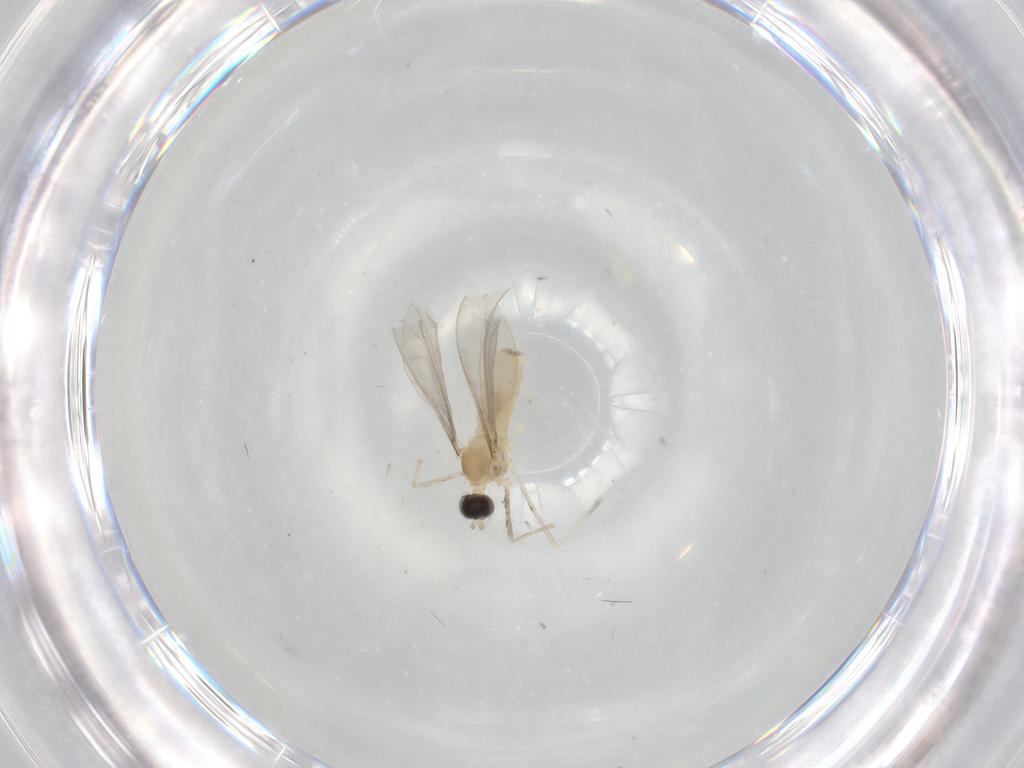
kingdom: Animalia
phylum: Arthropoda
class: Insecta
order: Diptera
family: Cecidomyiidae
